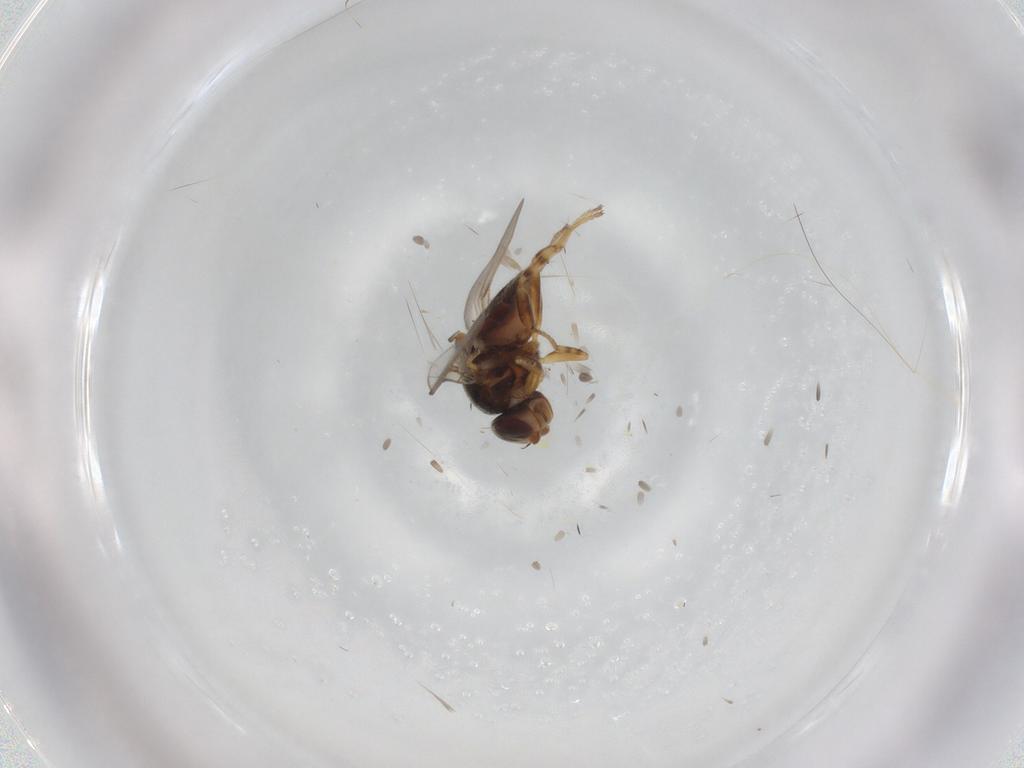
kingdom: Animalia
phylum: Arthropoda
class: Insecta
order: Diptera
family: Chloropidae
